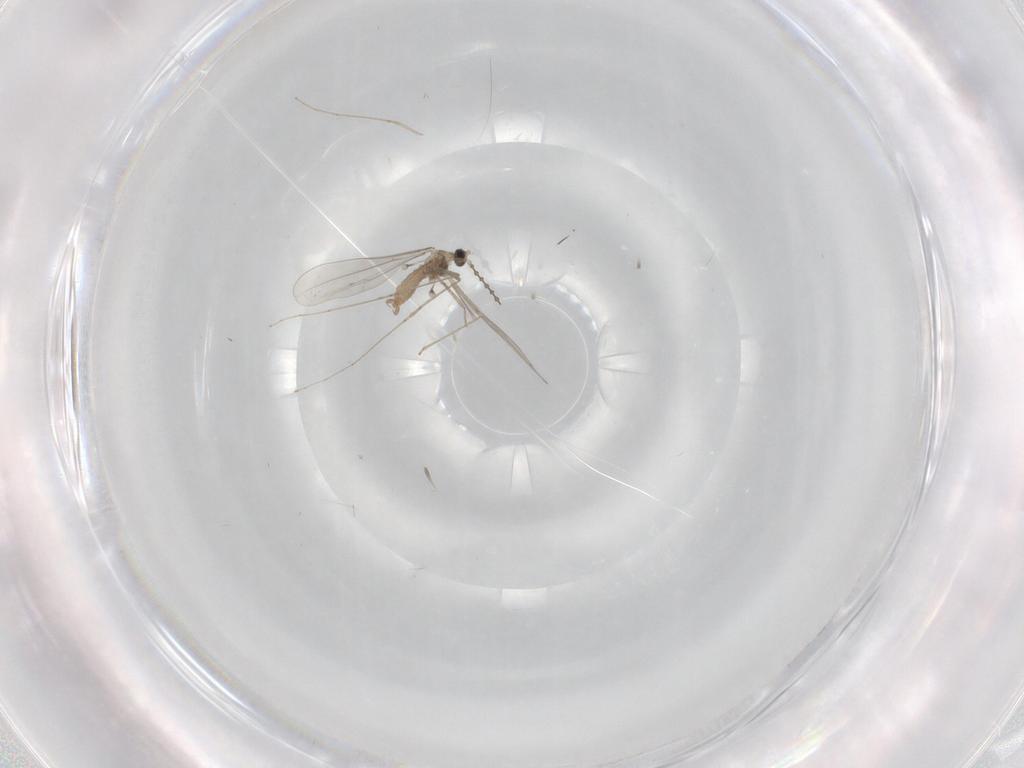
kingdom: Animalia
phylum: Arthropoda
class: Insecta
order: Diptera
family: Cecidomyiidae
